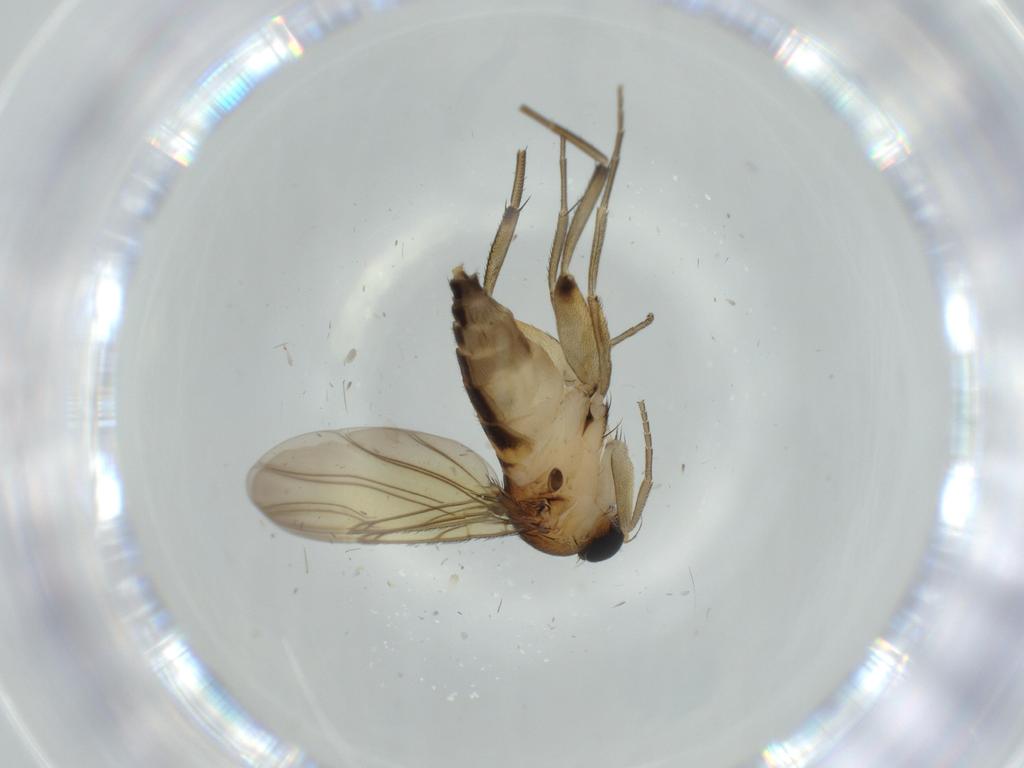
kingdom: Animalia
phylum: Arthropoda
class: Insecta
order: Diptera
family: Phoridae
